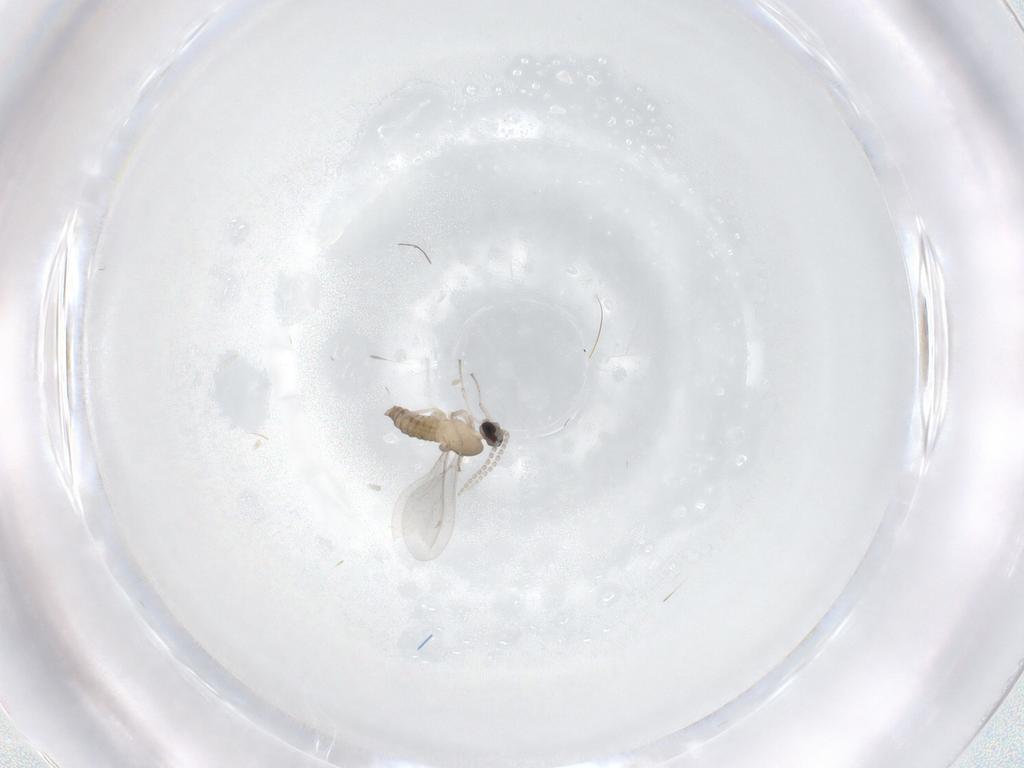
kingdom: Animalia
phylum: Arthropoda
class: Insecta
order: Diptera
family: Cecidomyiidae
